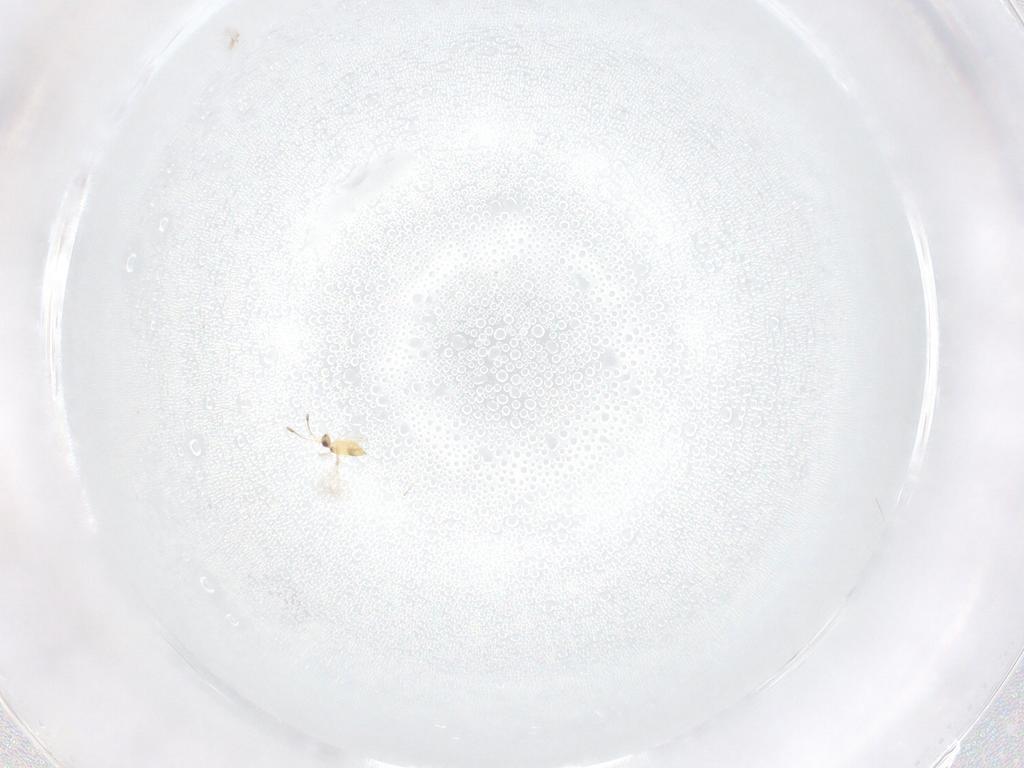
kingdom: Animalia
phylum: Arthropoda
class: Insecta
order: Hymenoptera
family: Mymaridae
